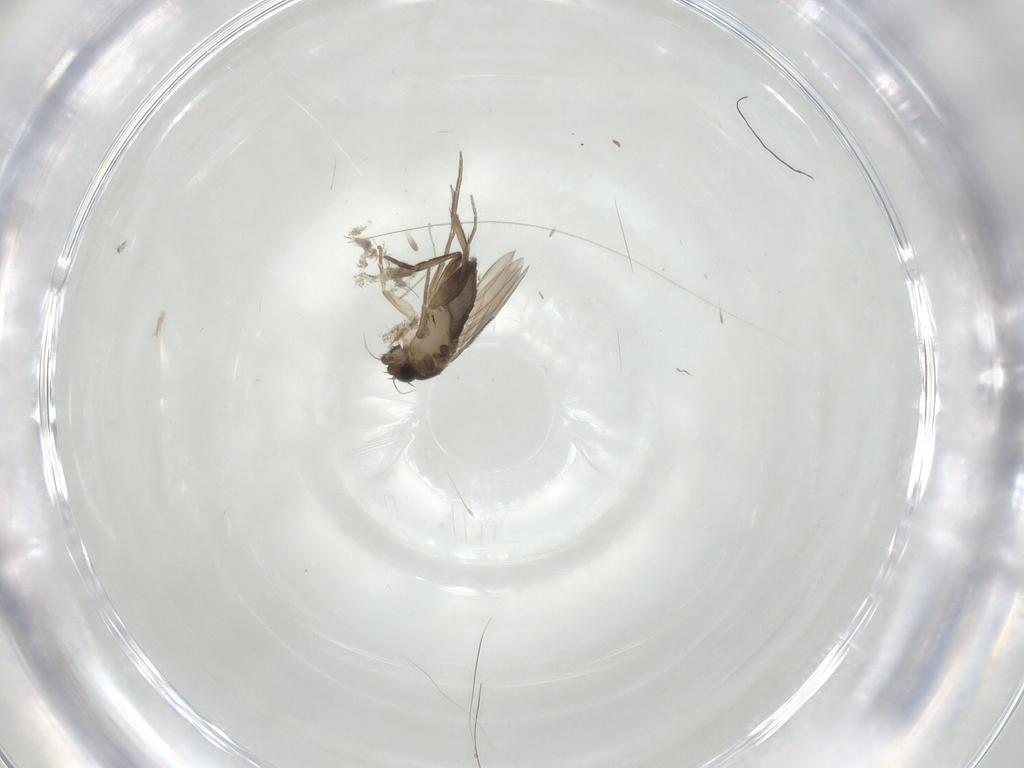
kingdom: Animalia
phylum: Arthropoda
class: Insecta
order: Diptera
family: Phoridae
